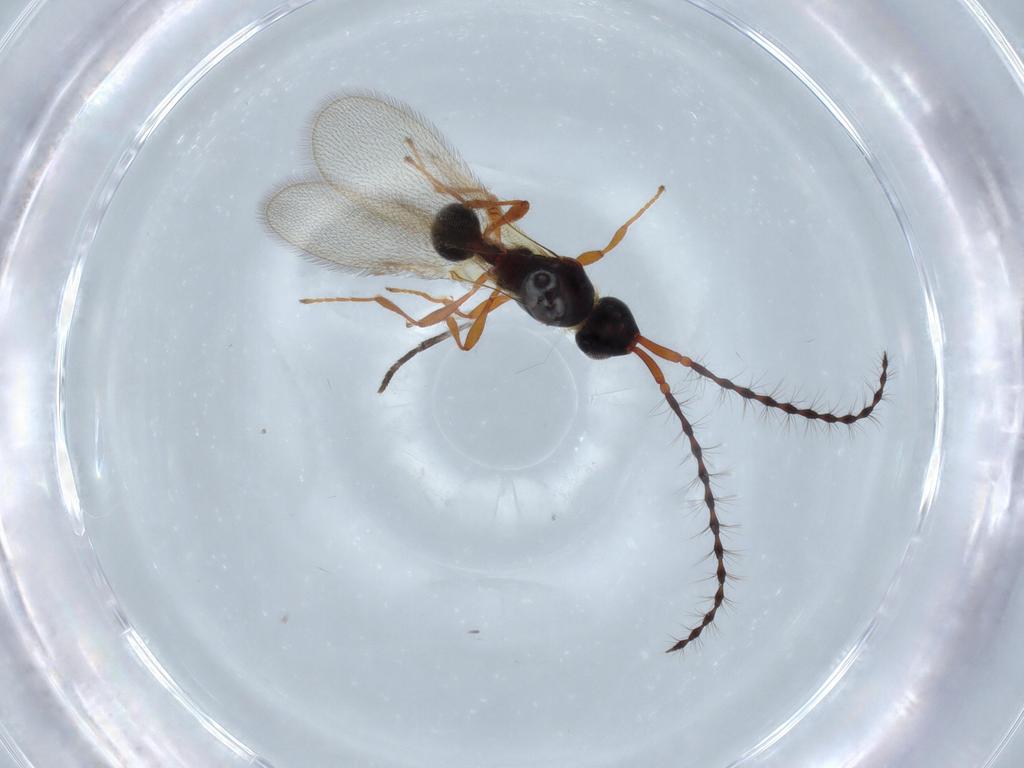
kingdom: Animalia
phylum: Arthropoda
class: Insecta
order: Hymenoptera
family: Diapriidae
